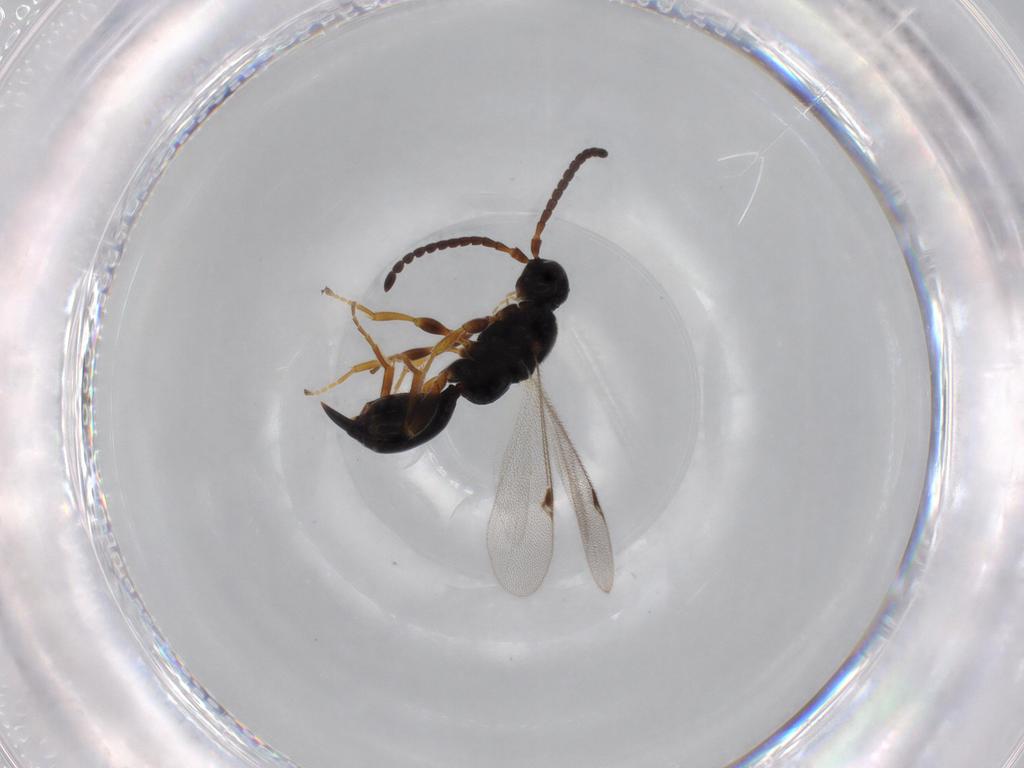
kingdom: Animalia
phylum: Arthropoda
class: Insecta
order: Hymenoptera
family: Proctotrupidae
